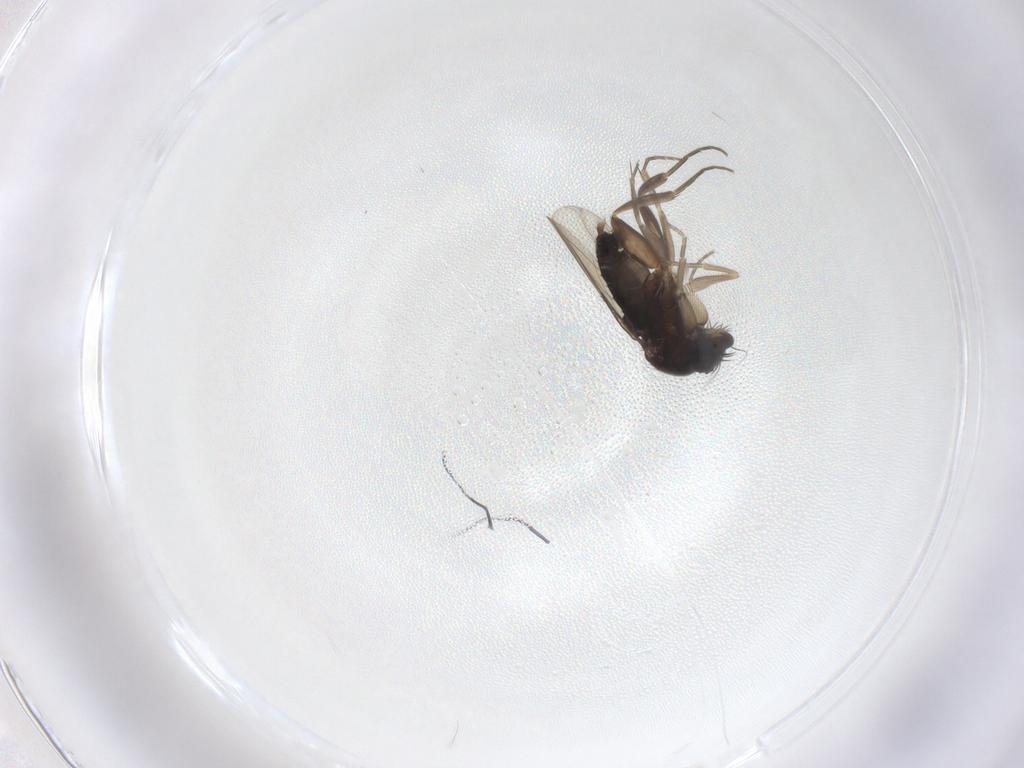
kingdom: Animalia
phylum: Arthropoda
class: Insecta
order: Diptera
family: Phoridae
